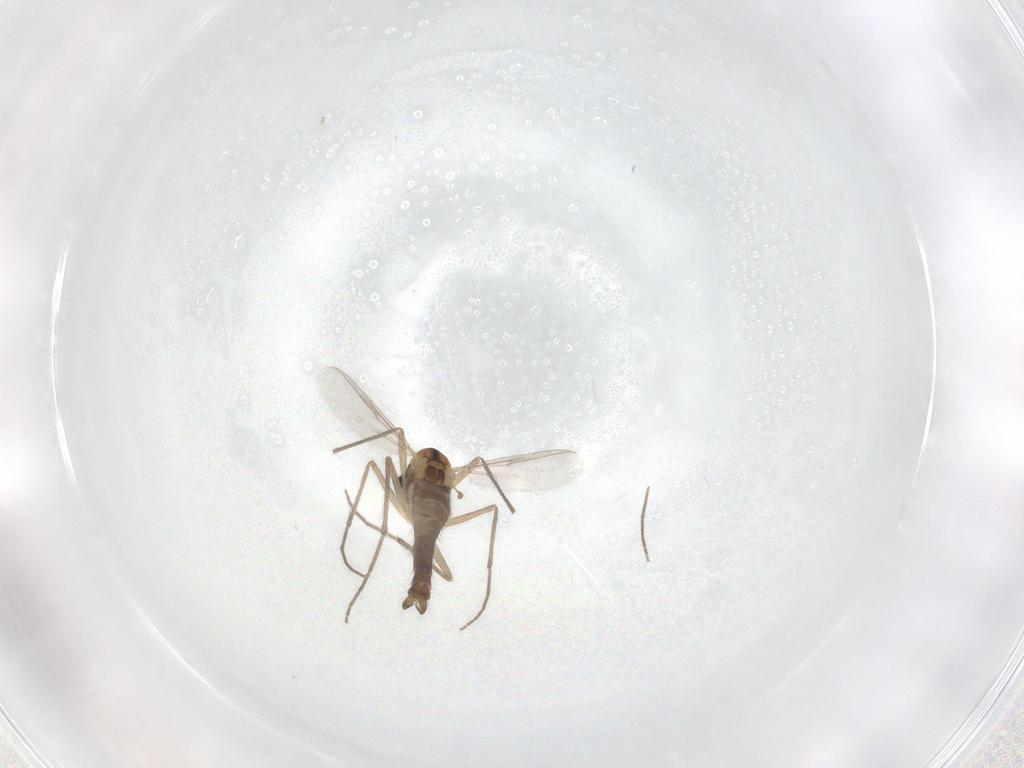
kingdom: Animalia
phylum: Arthropoda
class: Insecta
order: Diptera
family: Chironomidae
